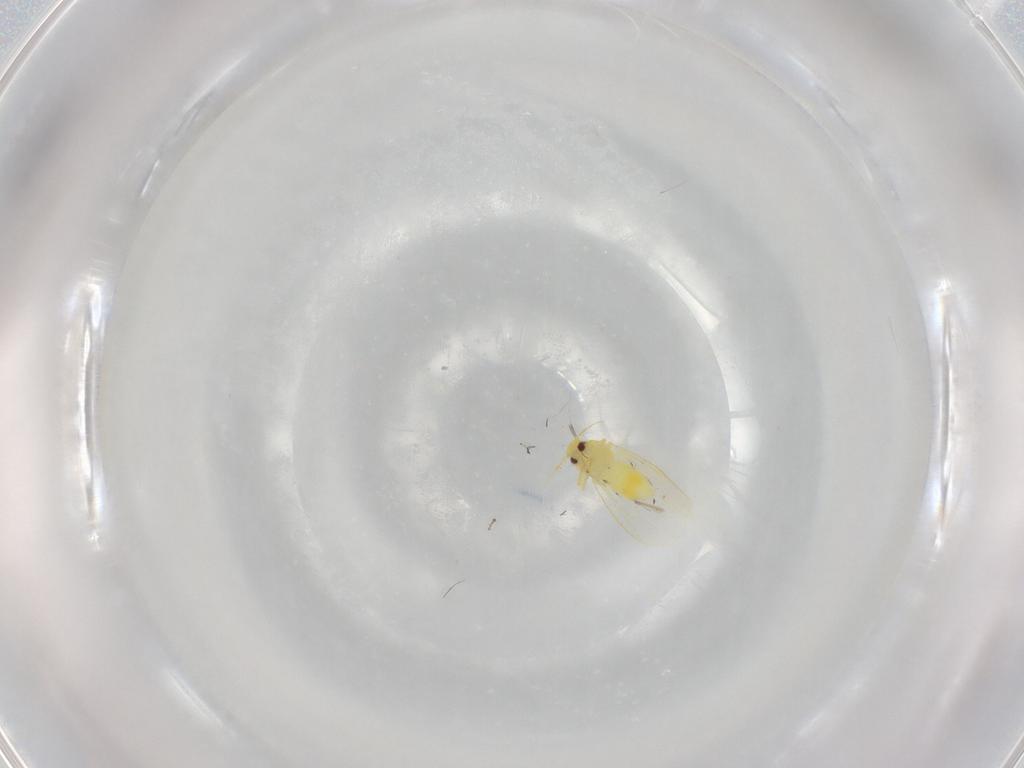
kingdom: Animalia
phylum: Arthropoda
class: Insecta
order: Hemiptera
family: Aleyrodidae
